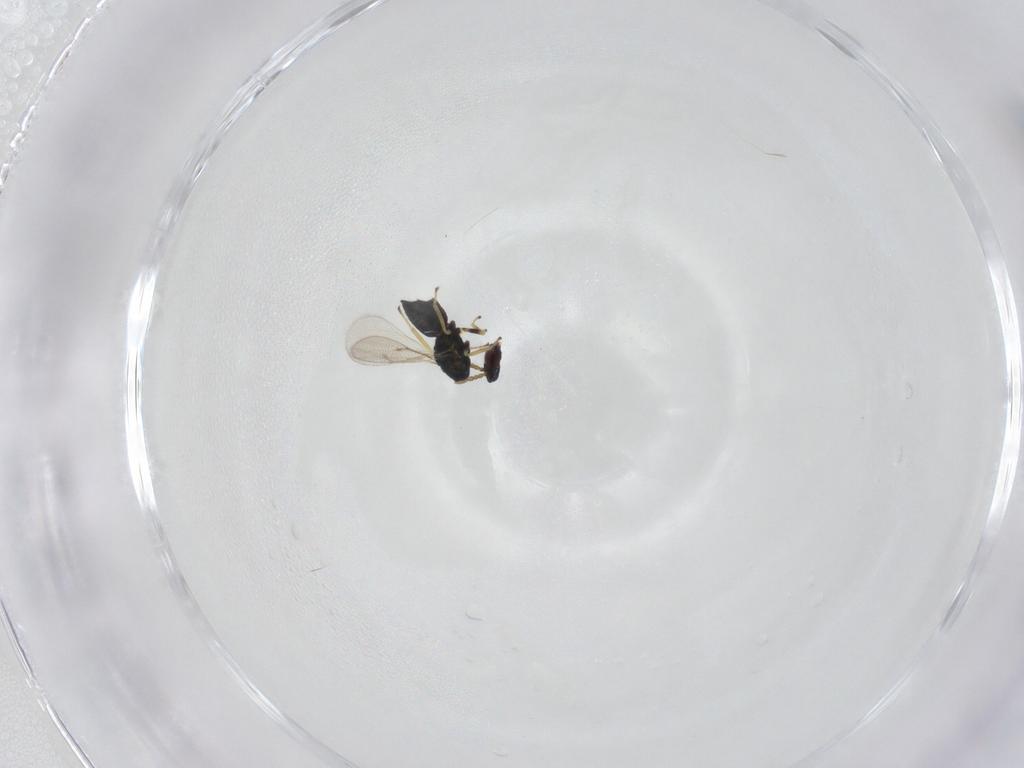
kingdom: Animalia
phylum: Arthropoda
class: Insecta
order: Hymenoptera
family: Eulophidae
